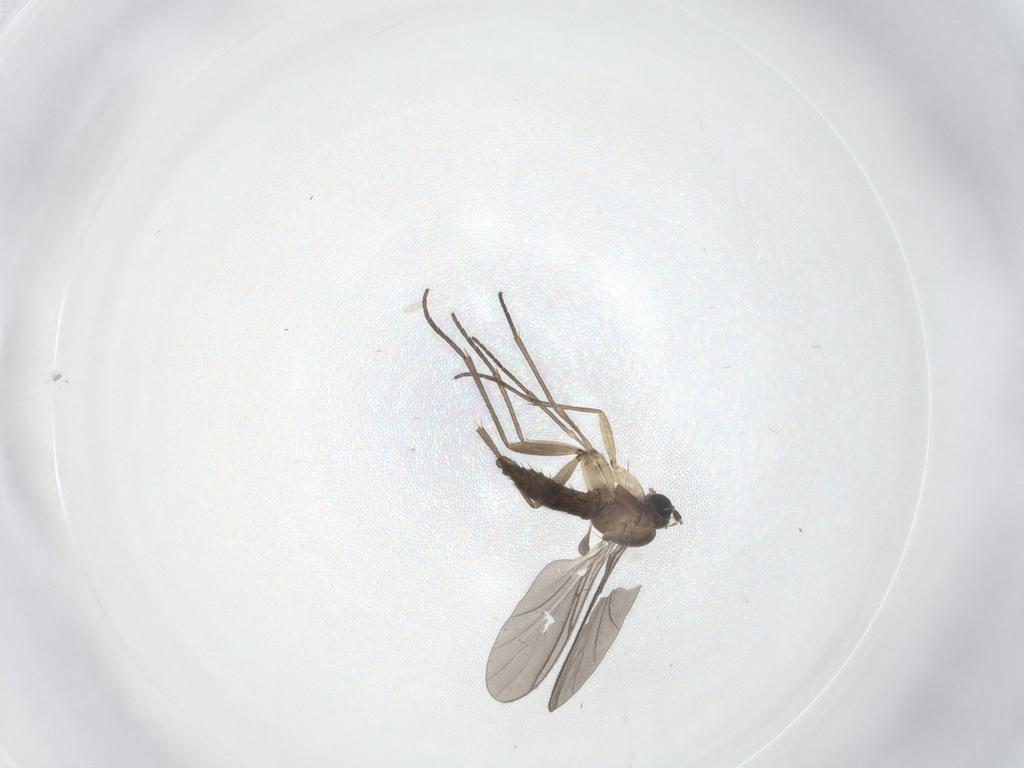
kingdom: Animalia
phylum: Arthropoda
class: Insecta
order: Diptera
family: Sciaridae
